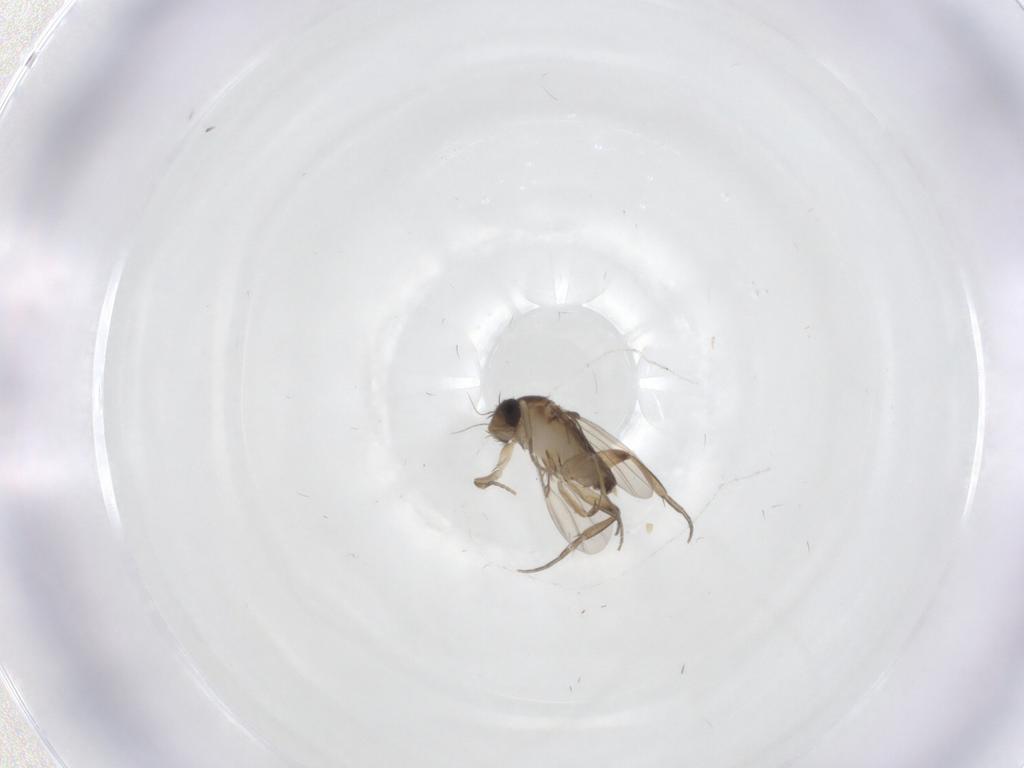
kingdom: Animalia
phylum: Arthropoda
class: Insecta
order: Diptera
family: Phoridae
